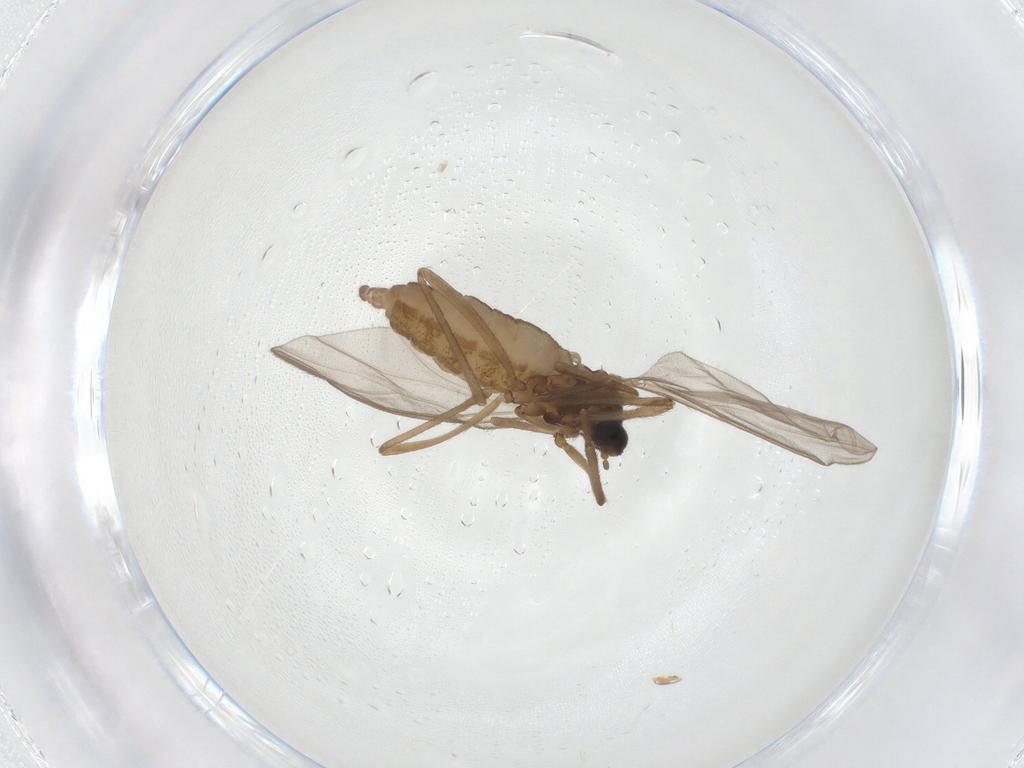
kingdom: Animalia
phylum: Arthropoda
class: Insecta
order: Diptera
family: Cecidomyiidae
